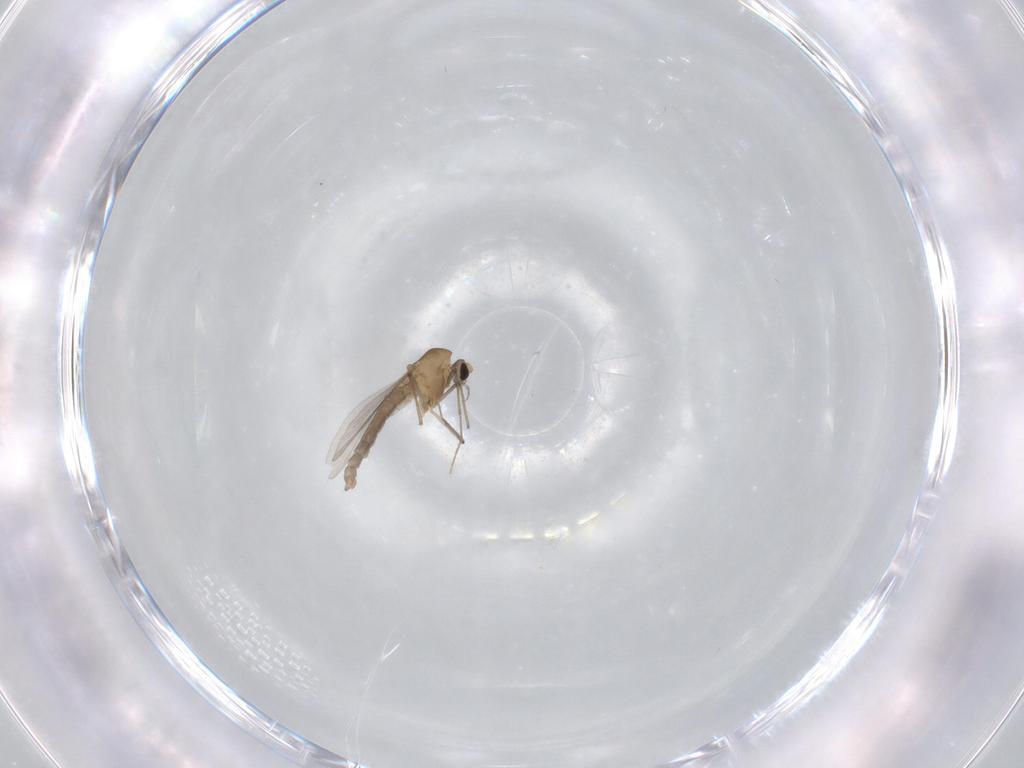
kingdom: Animalia
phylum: Arthropoda
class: Insecta
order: Diptera
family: Chironomidae
